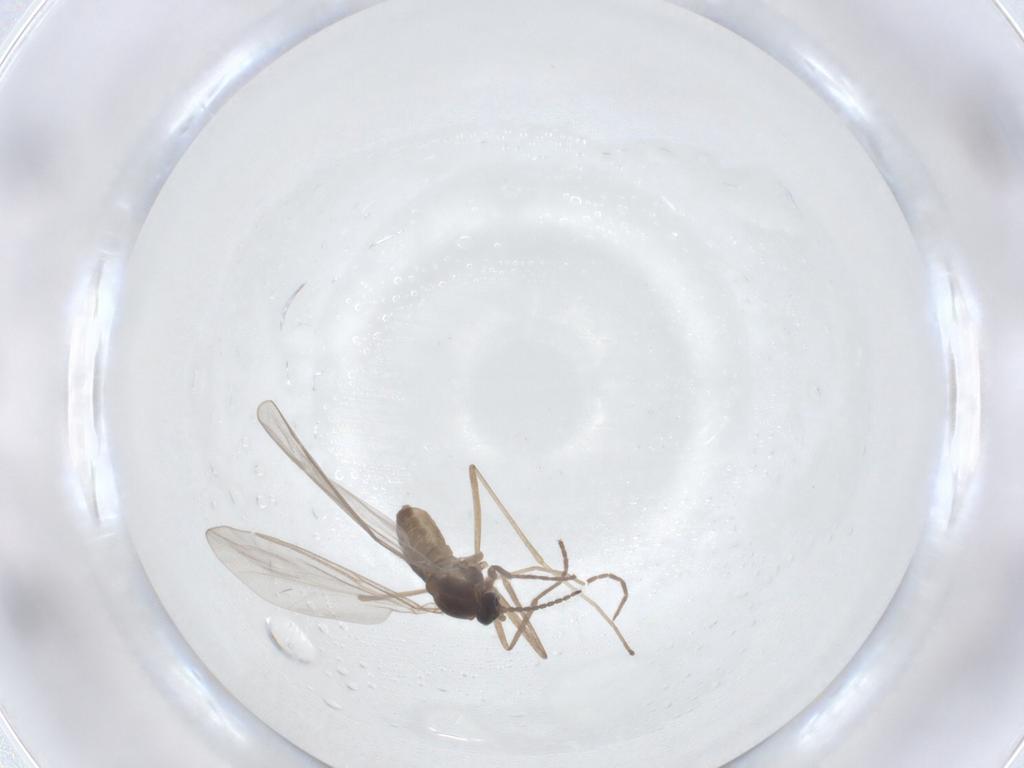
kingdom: Animalia
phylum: Arthropoda
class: Insecta
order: Diptera
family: Cecidomyiidae
